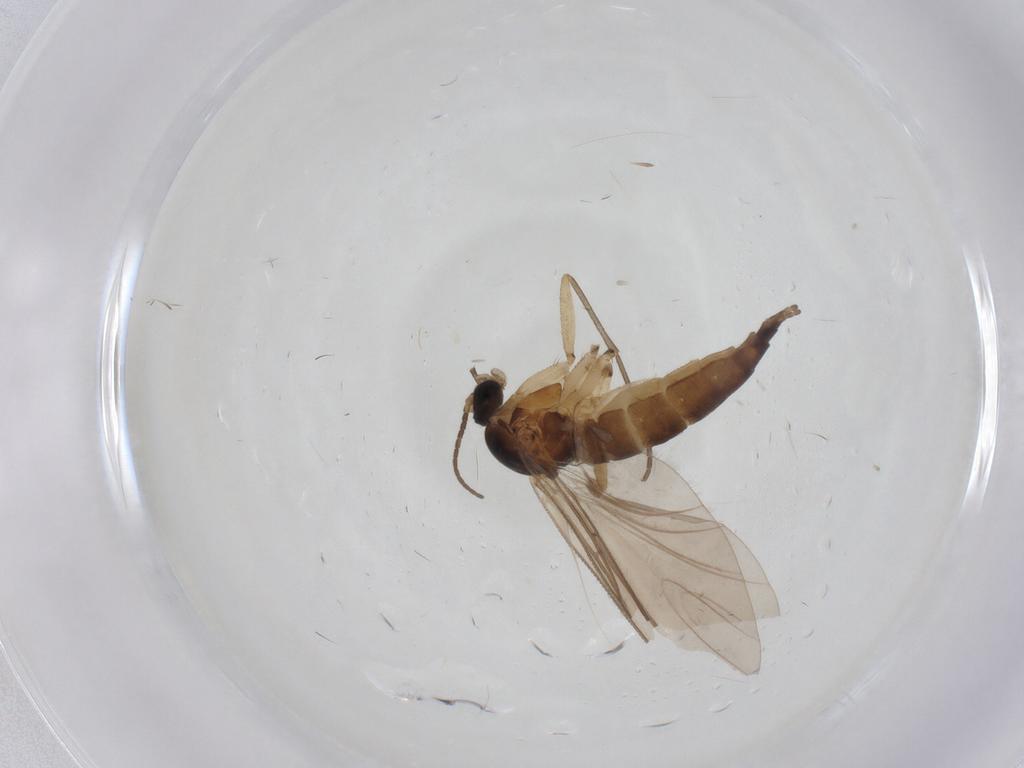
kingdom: Animalia
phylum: Arthropoda
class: Insecta
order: Diptera
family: Sciaridae
